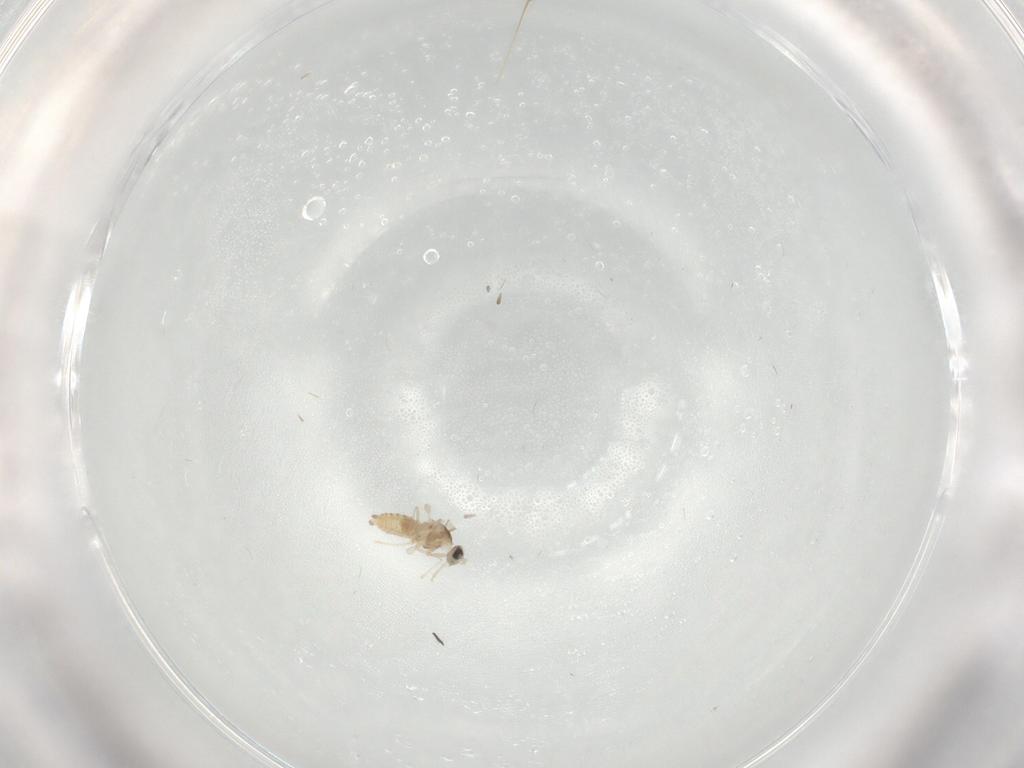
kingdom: Animalia
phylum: Arthropoda
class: Insecta
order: Diptera
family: Cecidomyiidae
